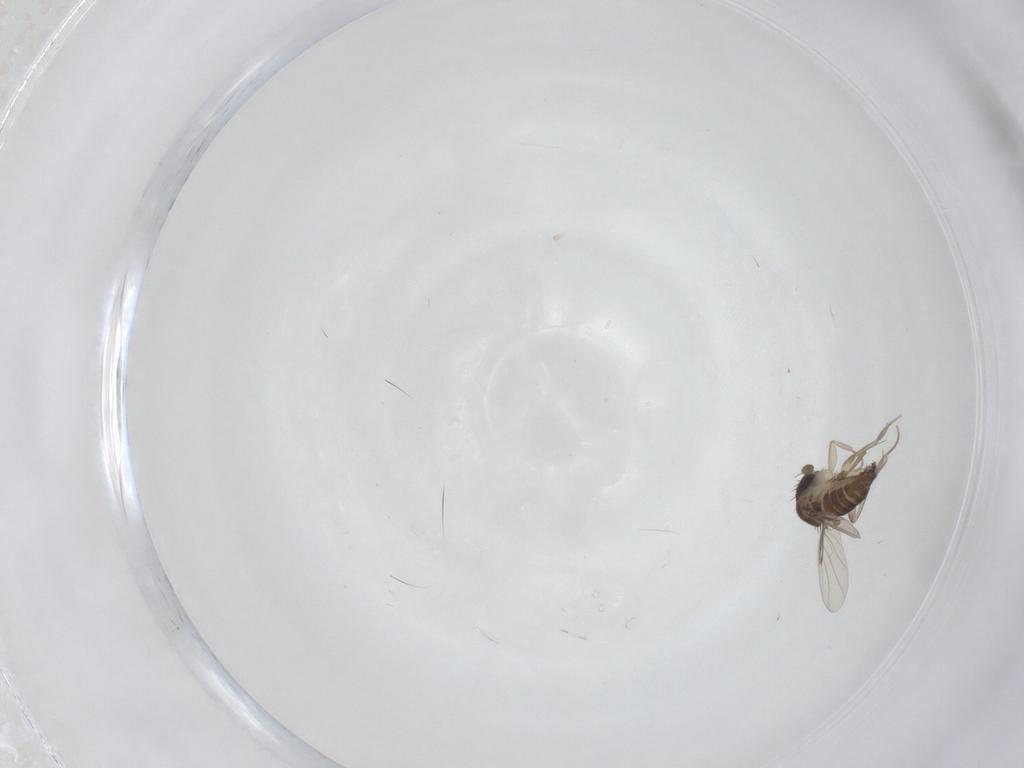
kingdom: Animalia
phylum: Arthropoda
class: Insecta
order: Diptera
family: Phoridae
